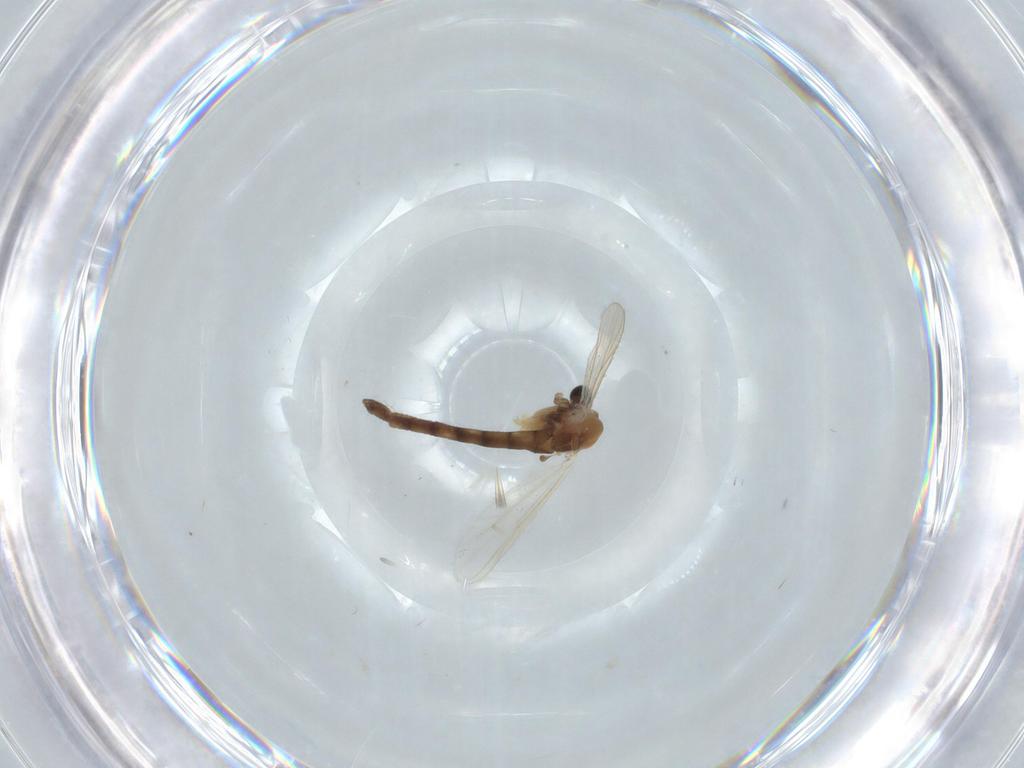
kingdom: Animalia
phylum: Arthropoda
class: Insecta
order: Diptera
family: Chironomidae
